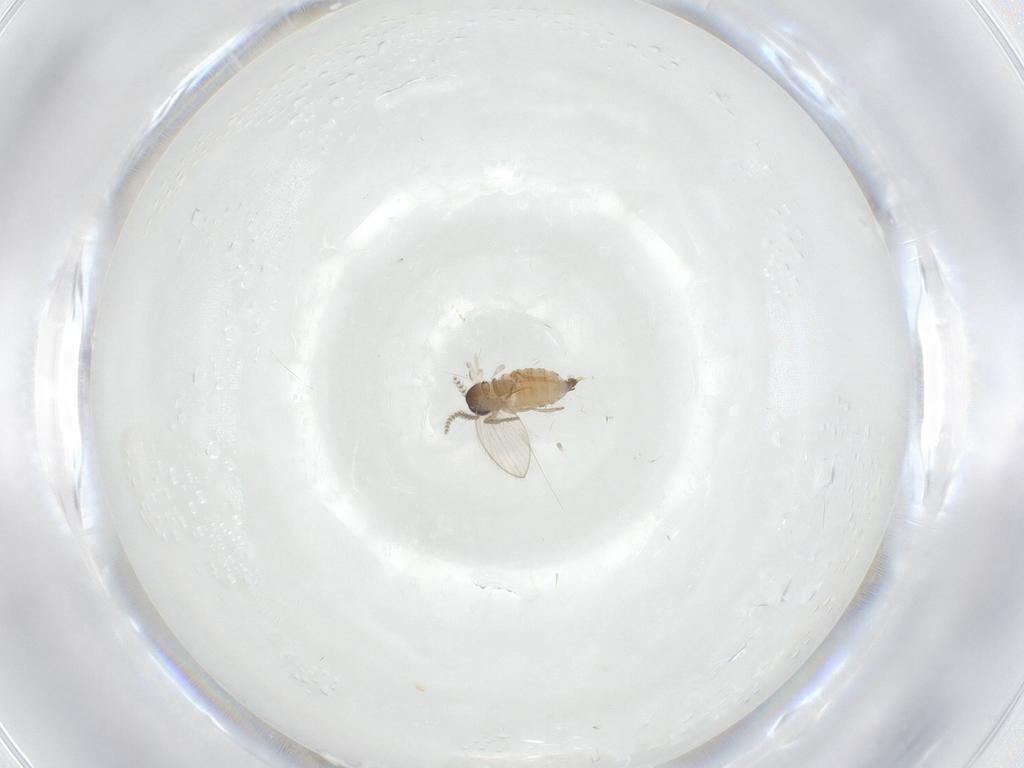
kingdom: Animalia
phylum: Arthropoda
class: Insecta
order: Diptera
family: Psychodidae
